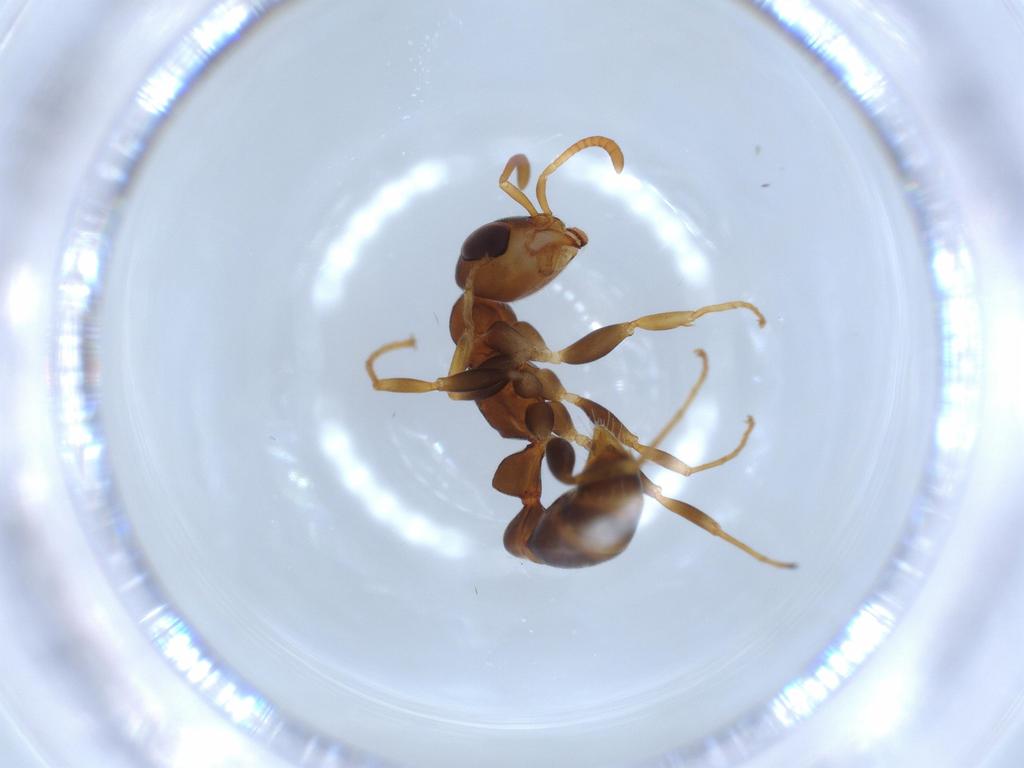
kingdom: Animalia
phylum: Arthropoda
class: Insecta
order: Hymenoptera
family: Formicidae
